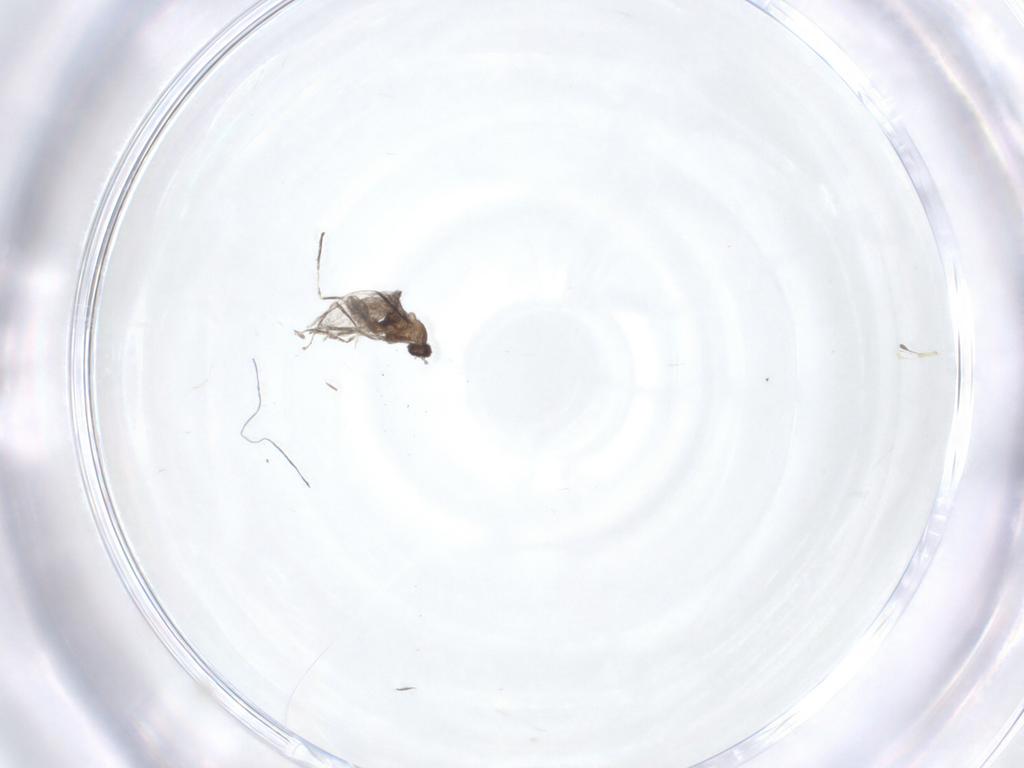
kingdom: Animalia
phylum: Arthropoda
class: Insecta
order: Diptera
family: Chironomidae
